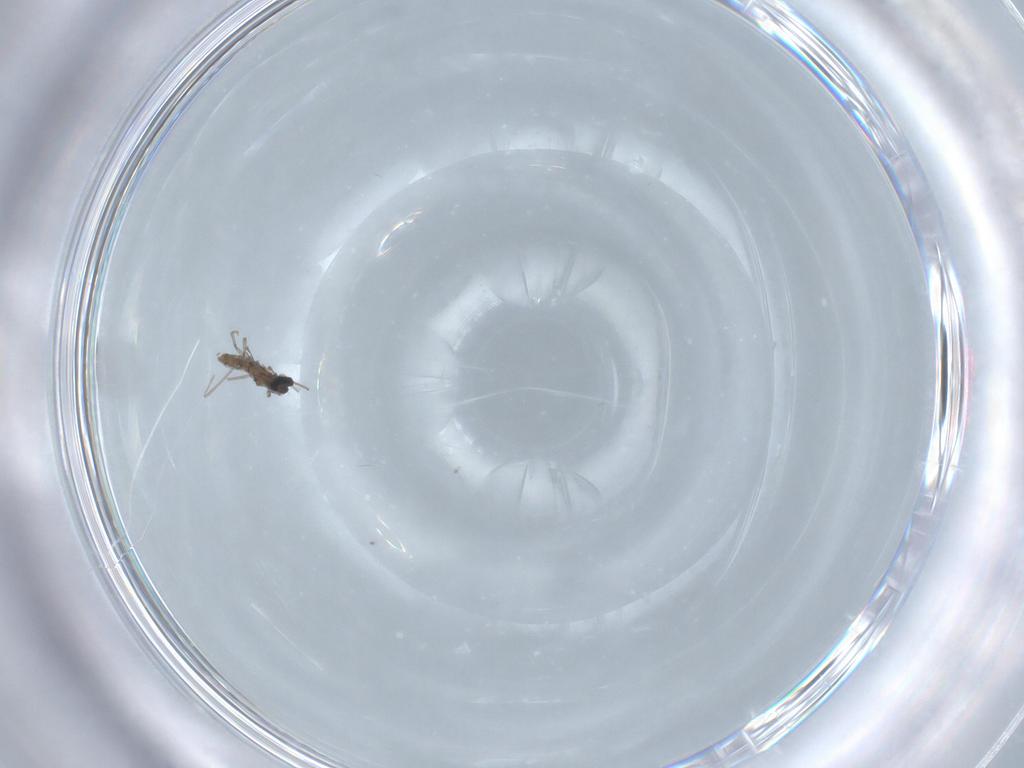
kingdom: Animalia
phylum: Arthropoda
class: Insecta
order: Diptera
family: Cecidomyiidae
